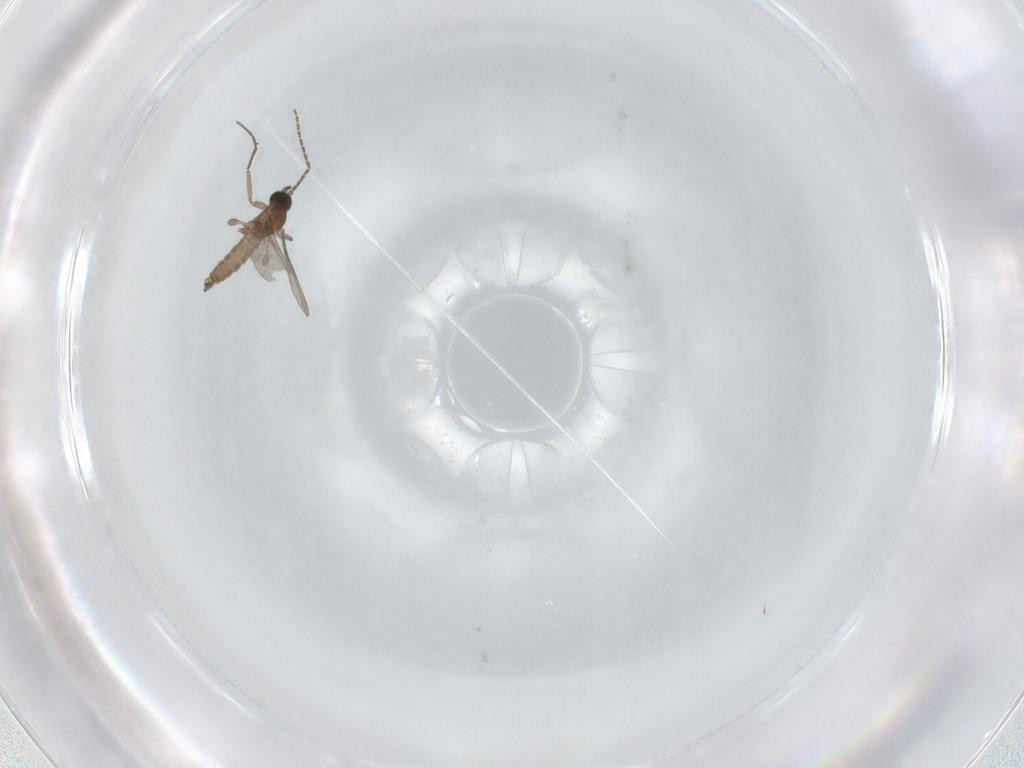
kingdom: Animalia
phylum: Arthropoda
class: Insecta
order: Diptera
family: Sciaridae
